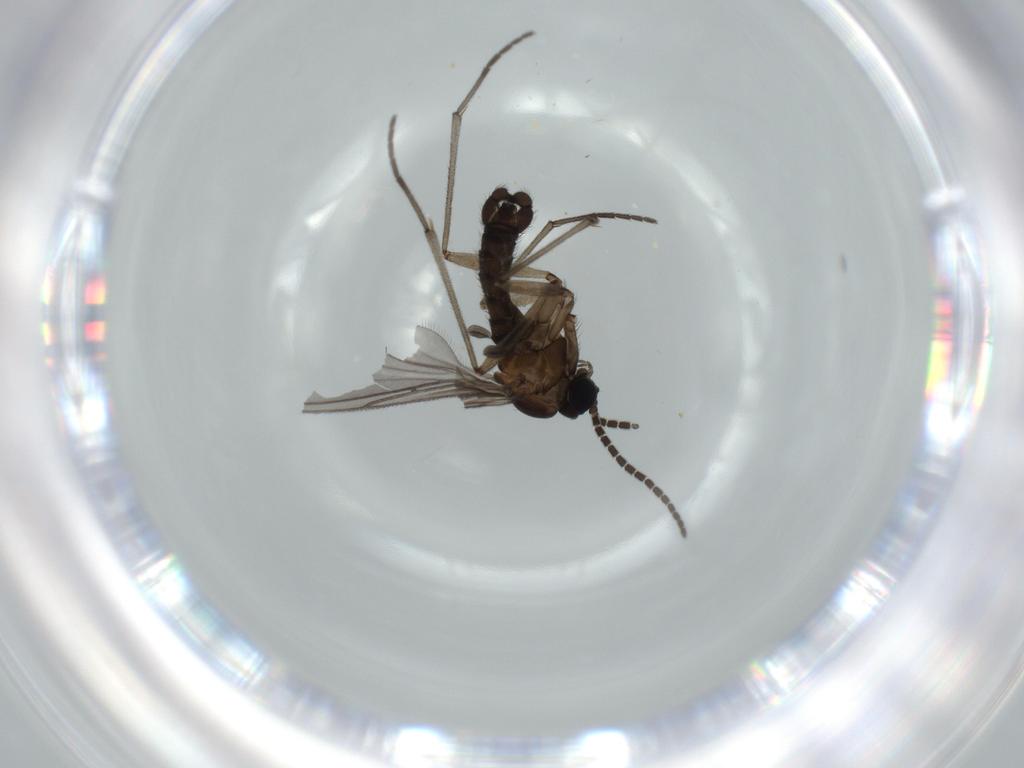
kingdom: Animalia
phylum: Arthropoda
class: Insecta
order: Diptera
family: Sciaridae
